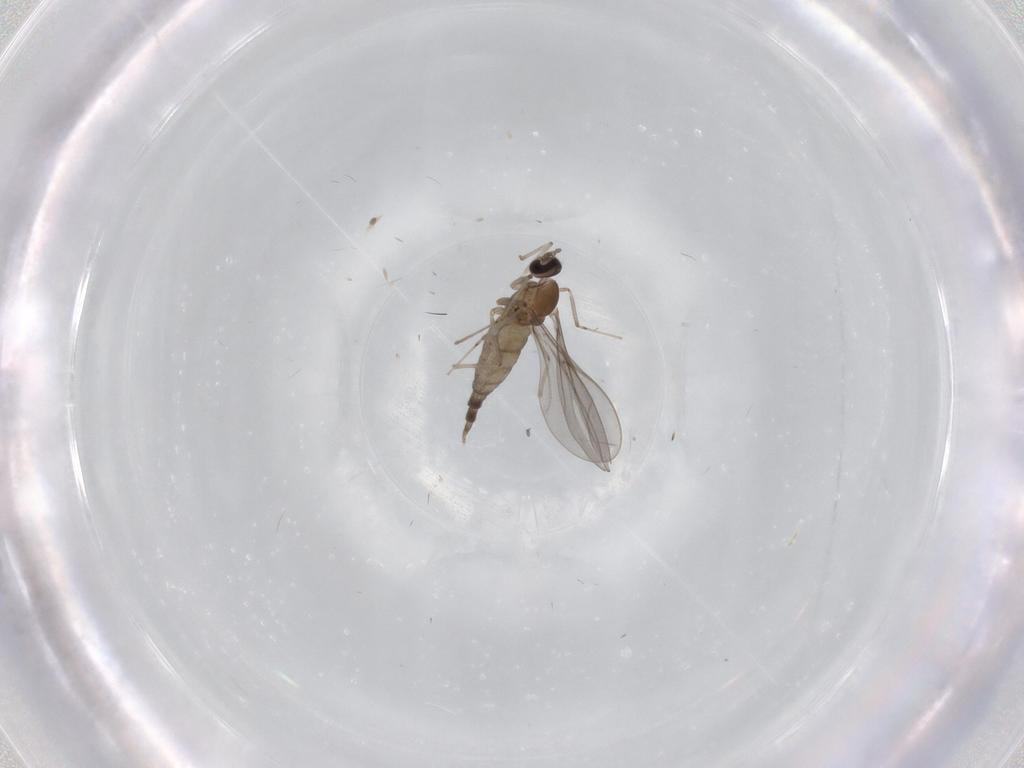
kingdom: Animalia
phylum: Arthropoda
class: Insecta
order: Diptera
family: Cecidomyiidae
